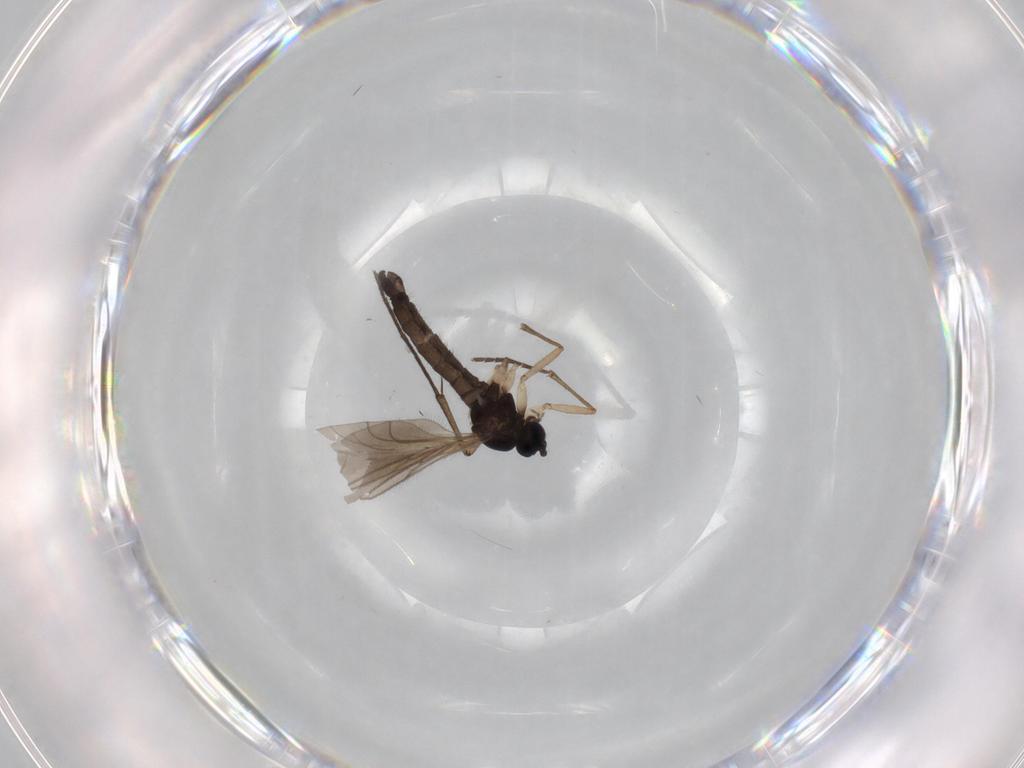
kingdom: Animalia
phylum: Arthropoda
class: Insecta
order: Diptera
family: Sciaridae
